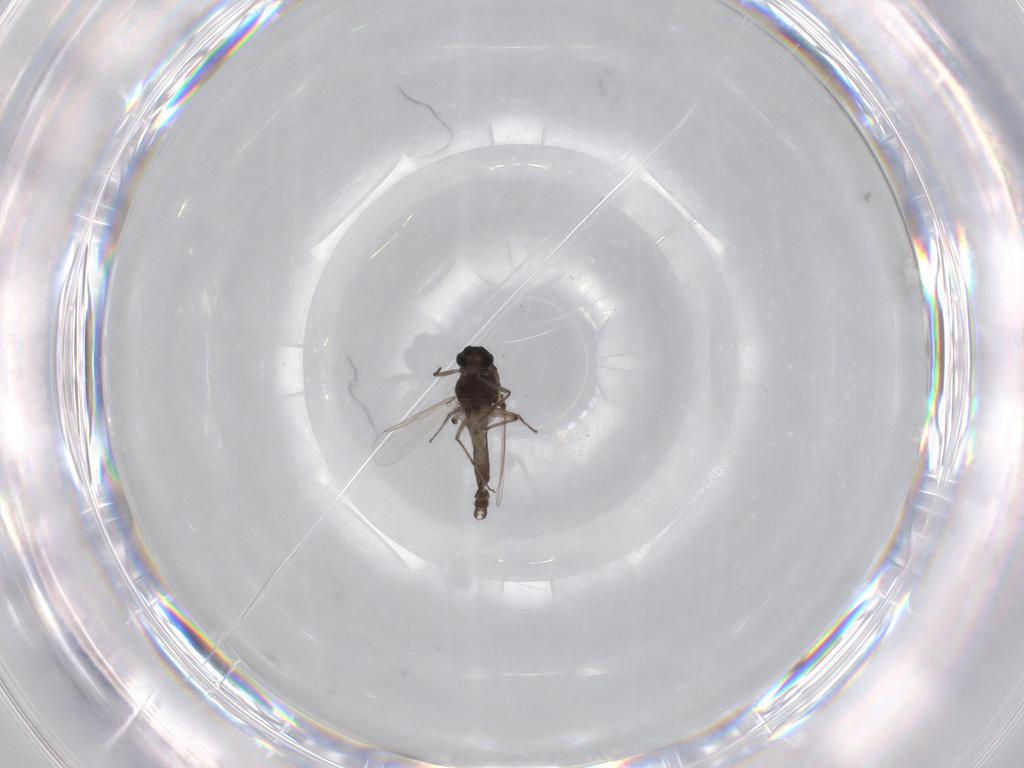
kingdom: Animalia
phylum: Arthropoda
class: Insecta
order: Diptera
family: Chironomidae
